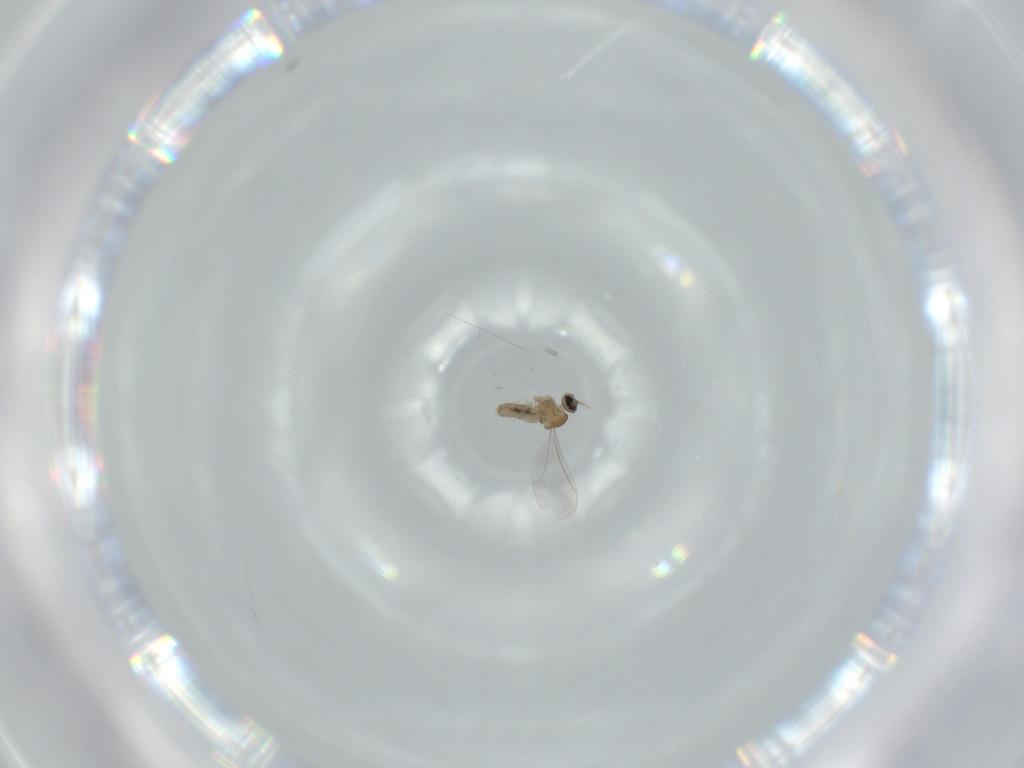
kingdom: Animalia
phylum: Arthropoda
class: Insecta
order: Diptera
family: Cecidomyiidae
